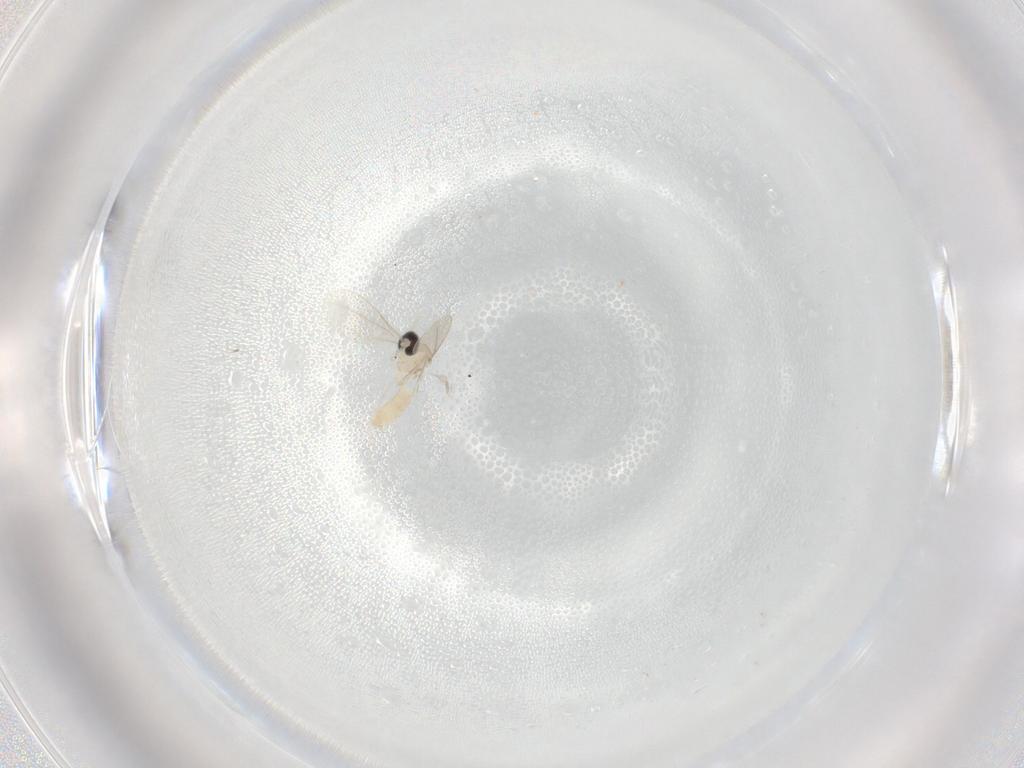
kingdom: Animalia
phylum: Arthropoda
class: Insecta
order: Diptera
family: Cecidomyiidae
